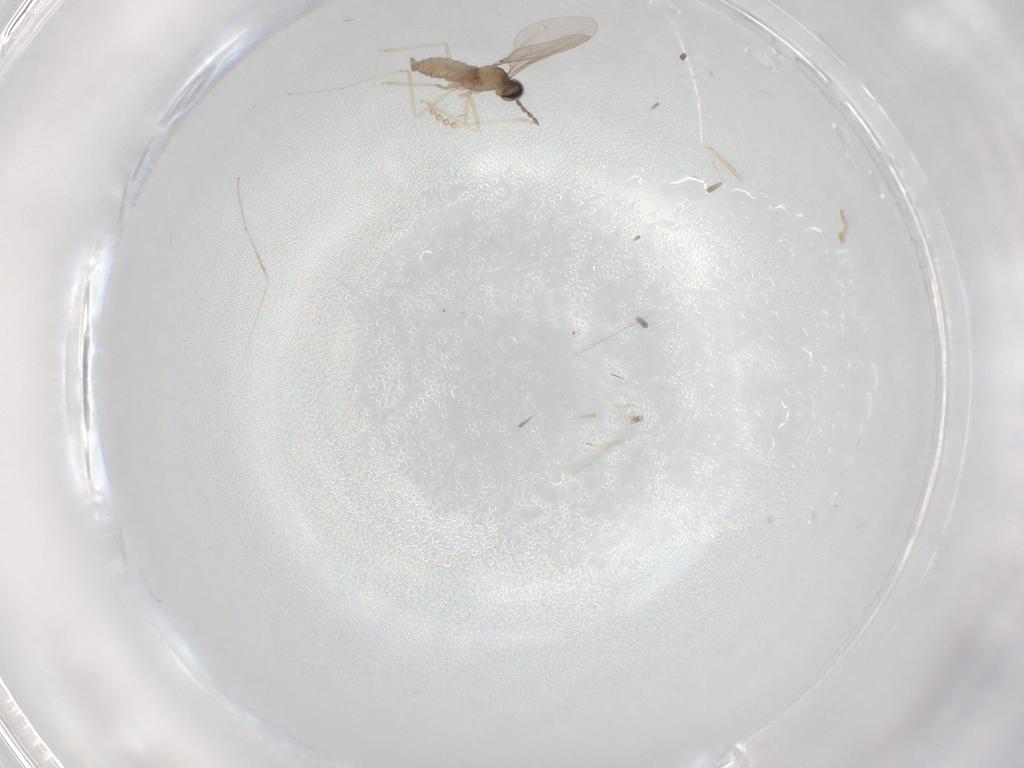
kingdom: Animalia
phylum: Arthropoda
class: Insecta
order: Diptera
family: Psychodidae
